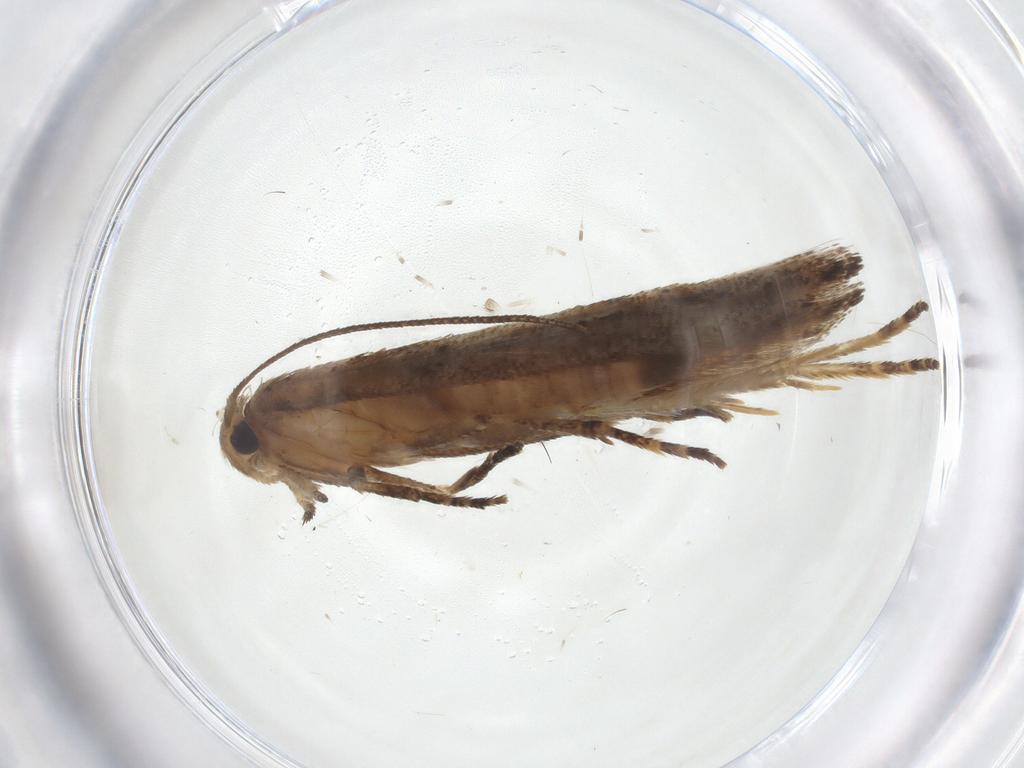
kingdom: Animalia
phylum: Arthropoda
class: Insecta
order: Lepidoptera
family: Momphidae
